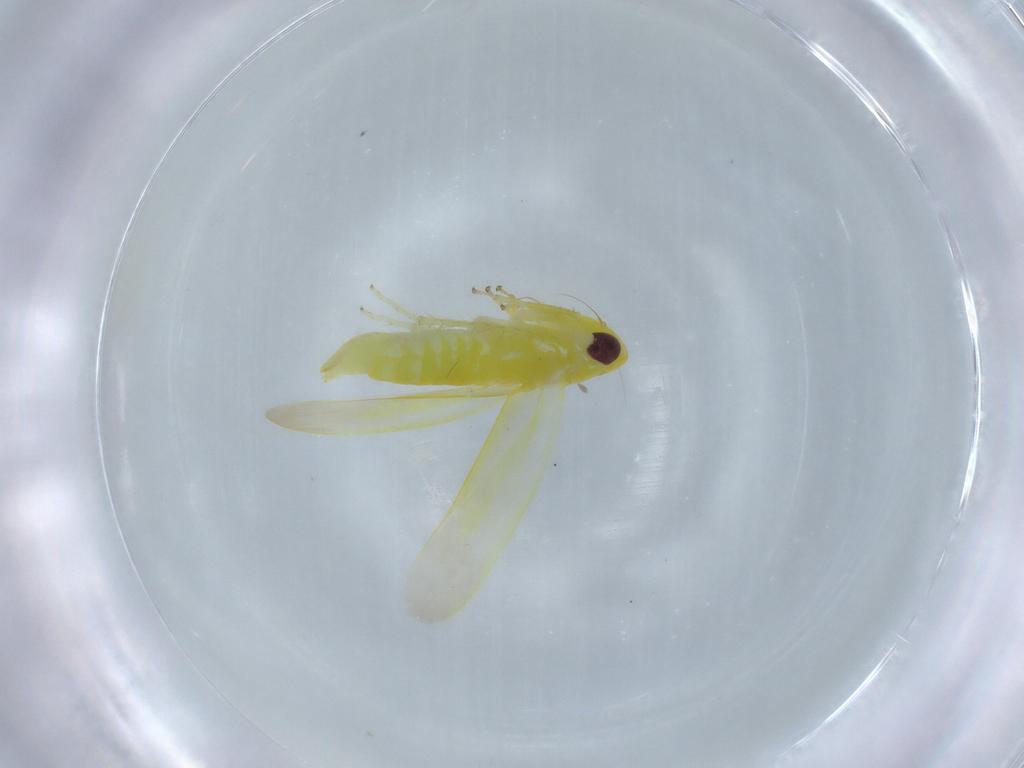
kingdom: Animalia
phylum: Arthropoda
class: Insecta
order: Hemiptera
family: Cicadellidae
